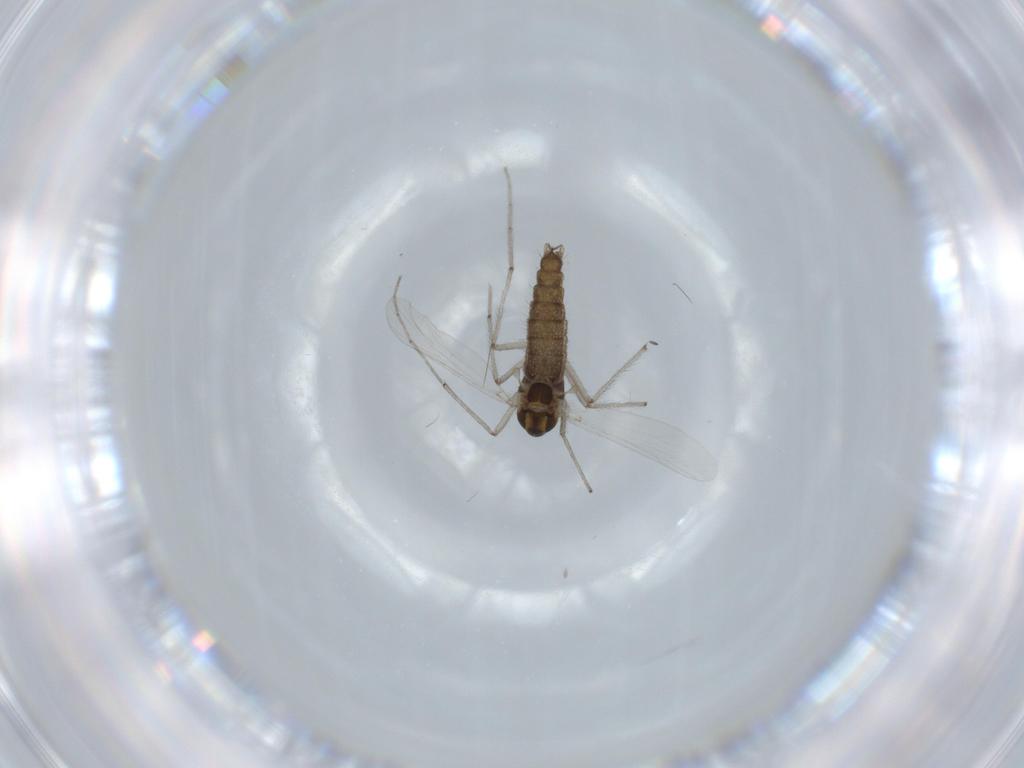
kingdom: Animalia
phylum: Arthropoda
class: Insecta
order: Diptera
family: Chironomidae
